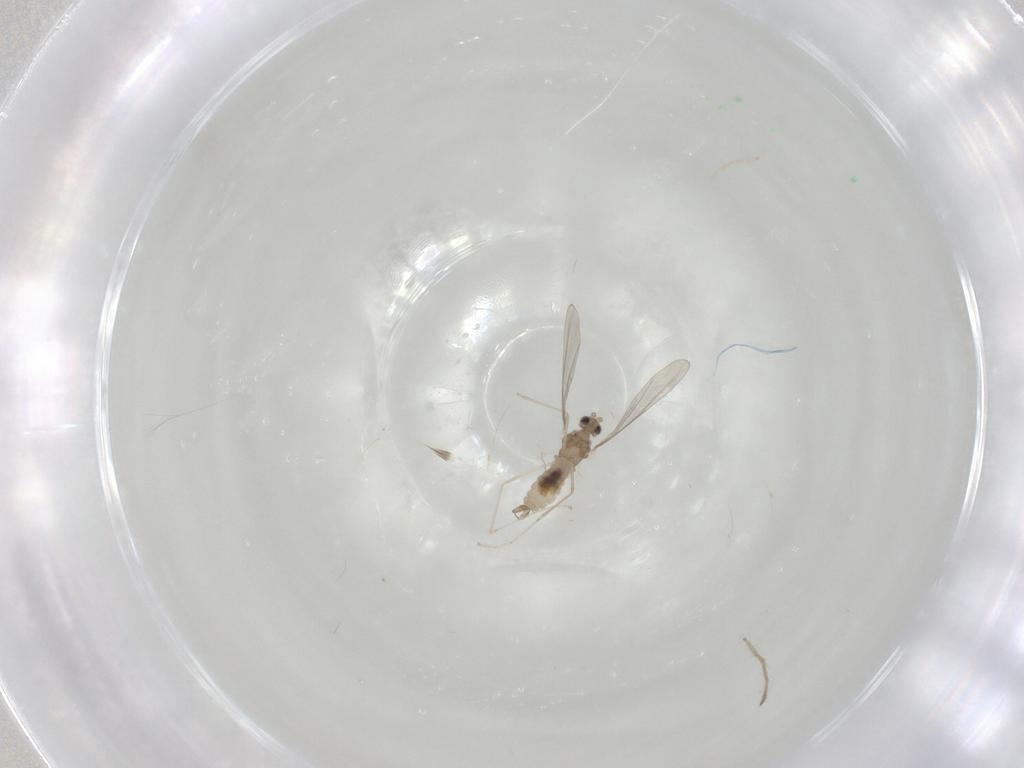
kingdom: Animalia
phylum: Arthropoda
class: Insecta
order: Diptera
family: Cecidomyiidae
